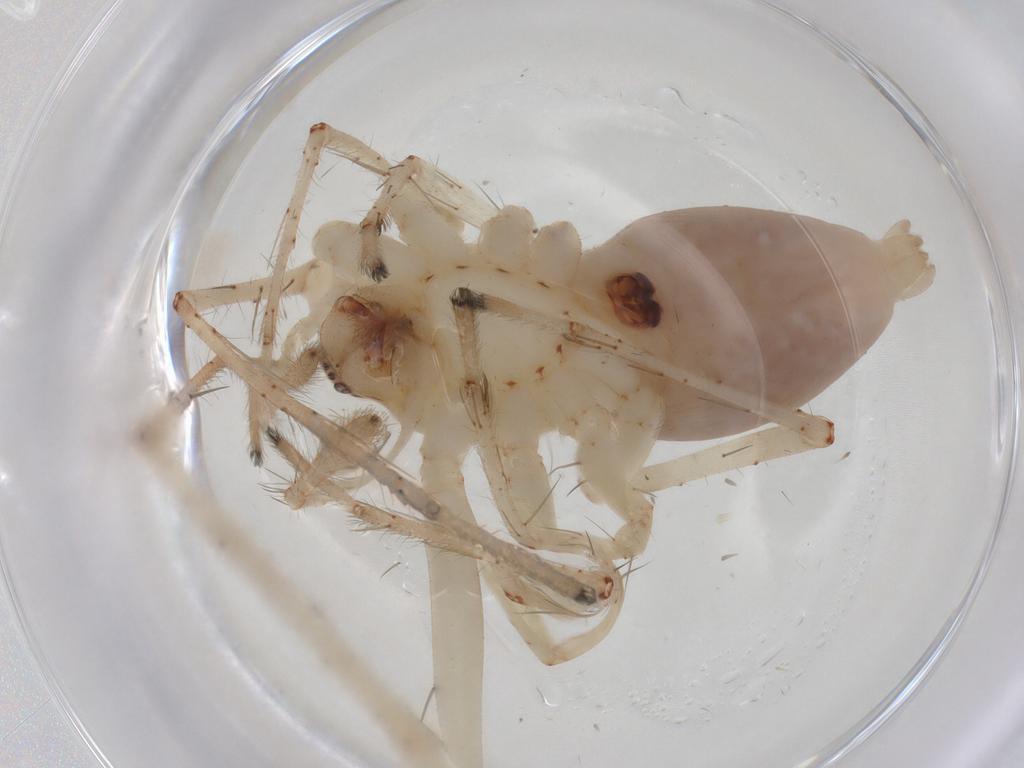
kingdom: Animalia
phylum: Arthropoda
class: Arachnida
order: Araneae
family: Anyphaenidae
